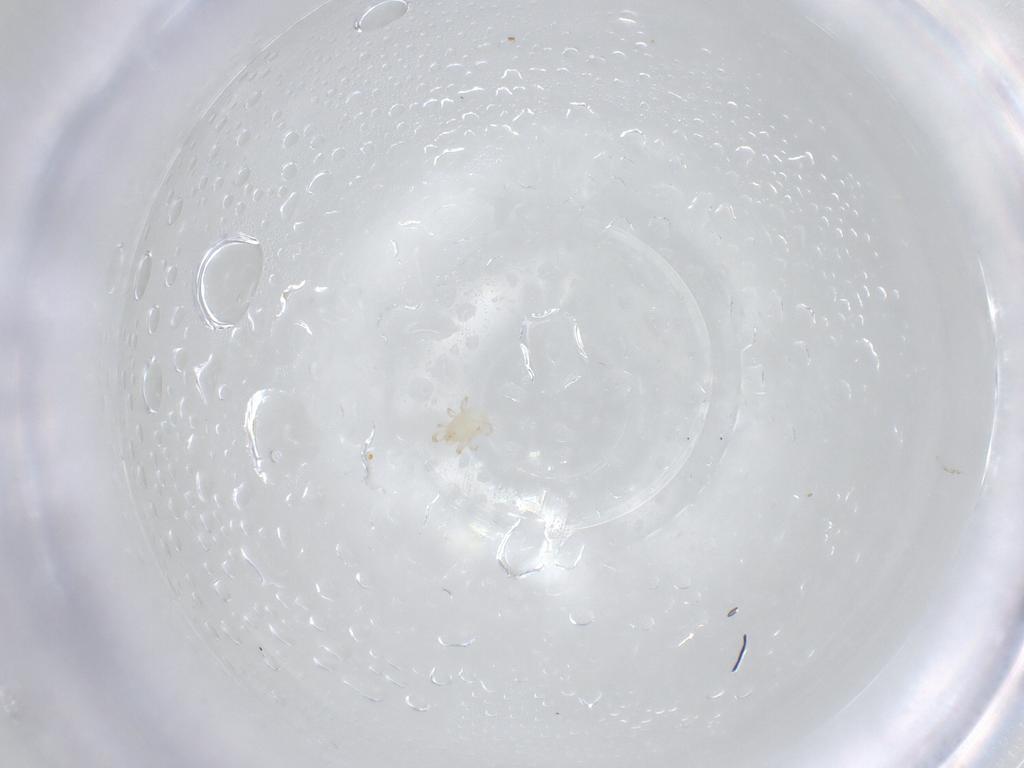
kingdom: Animalia
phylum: Arthropoda
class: Arachnida
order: Mesostigmata
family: Phytoseiidae
